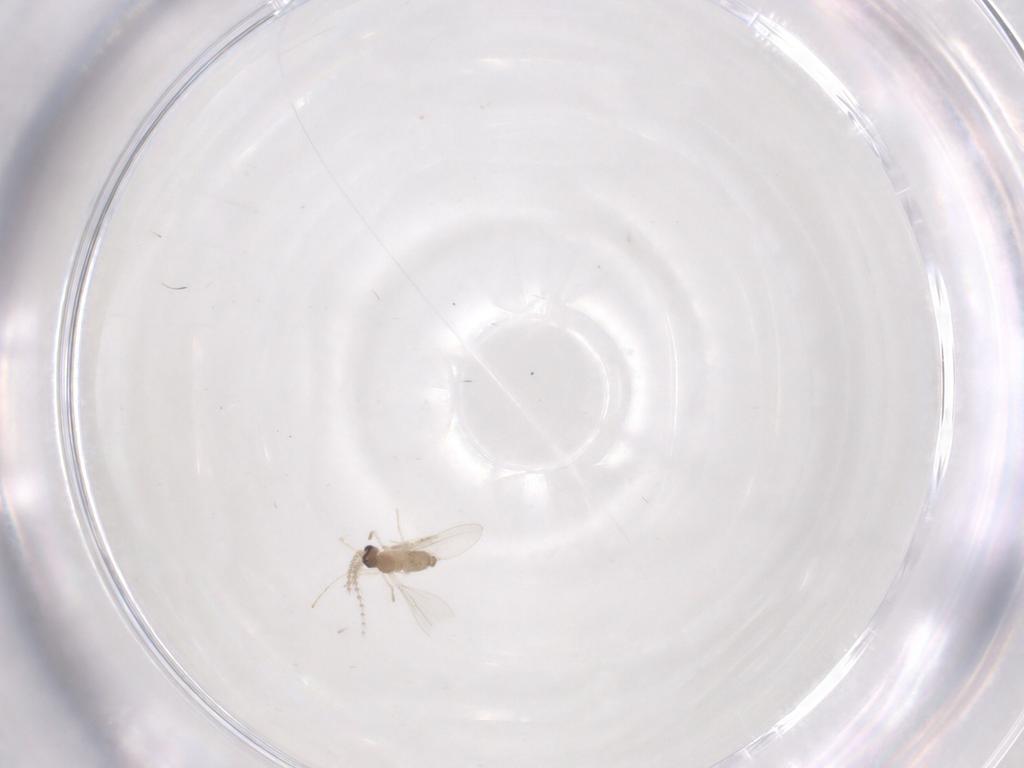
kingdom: Animalia
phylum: Arthropoda
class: Insecta
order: Diptera
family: Cecidomyiidae
